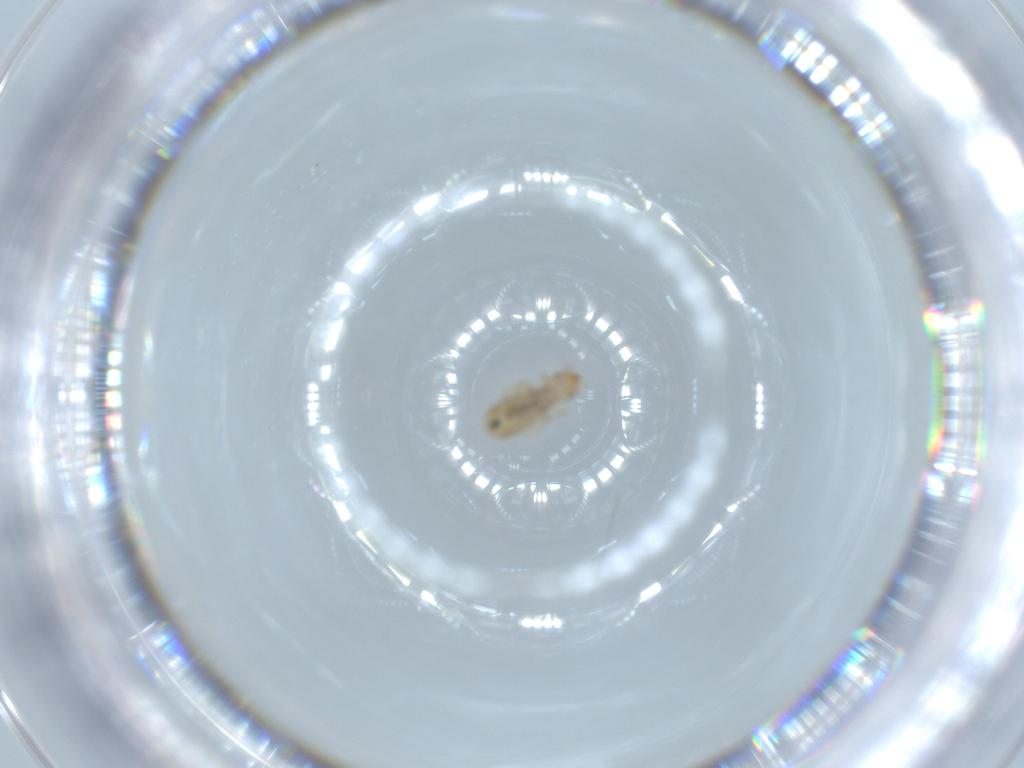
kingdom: Animalia
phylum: Arthropoda
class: Insecta
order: Psocodea
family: Liposcelididae
